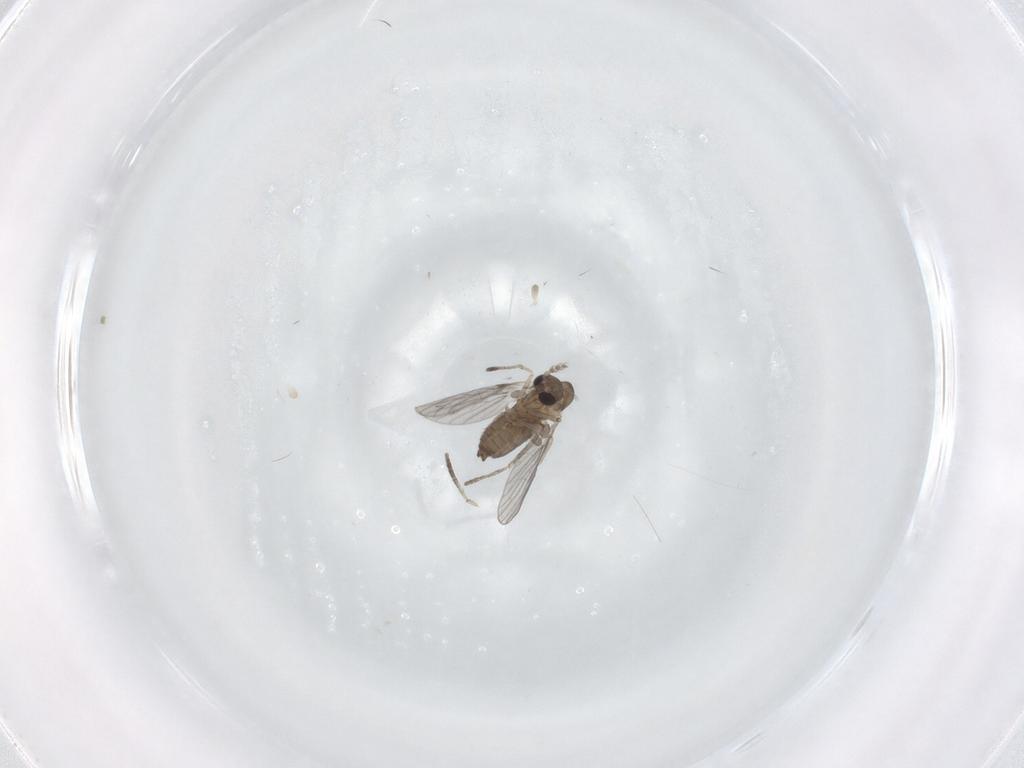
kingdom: Animalia
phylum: Arthropoda
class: Insecta
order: Diptera
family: Sciaridae
